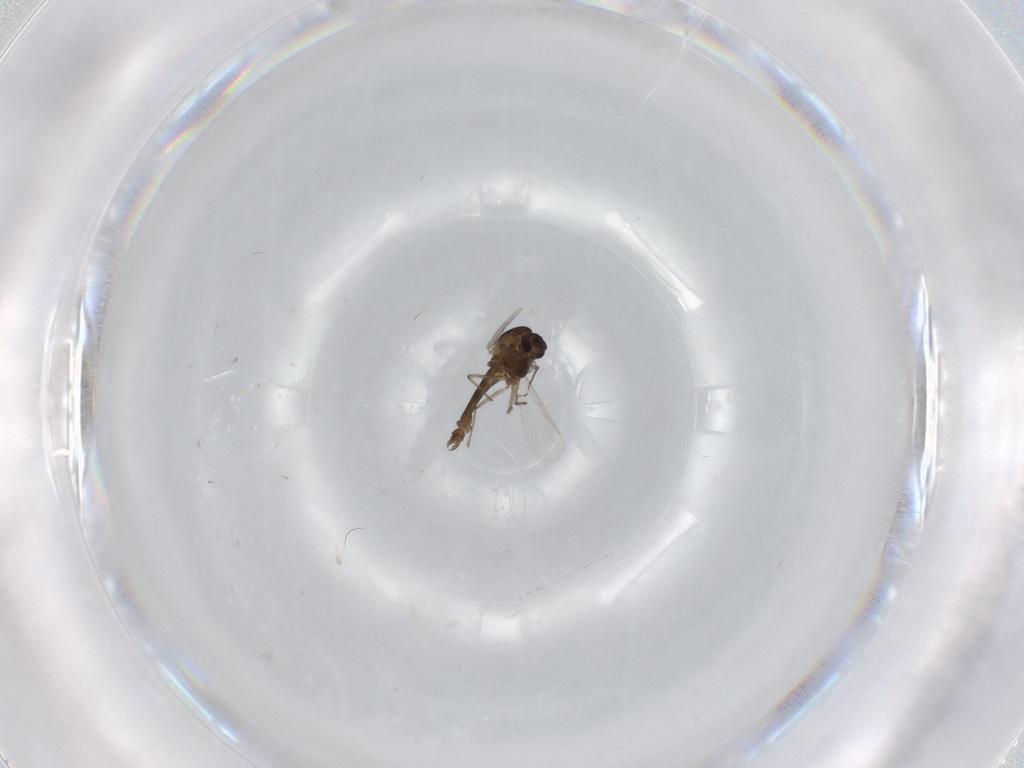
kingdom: Animalia
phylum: Arthropoda
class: Insecta
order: Diptera
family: Chironomidae
